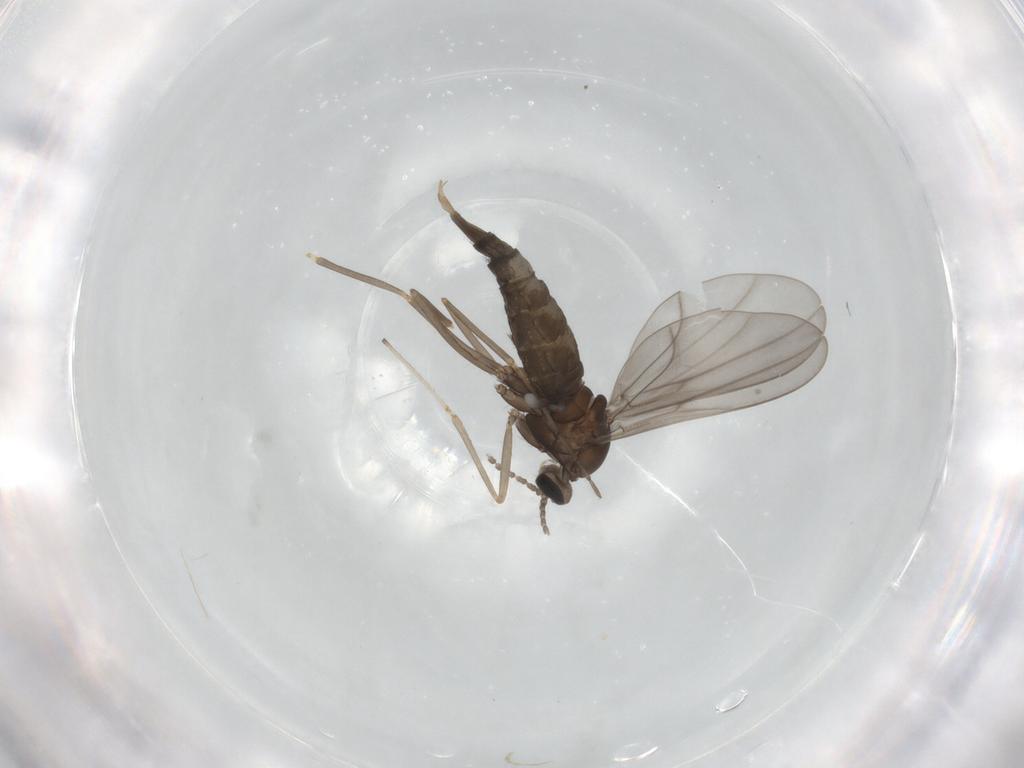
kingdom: Animalia
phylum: Arthropoda
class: Insecta
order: Diptera
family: Cecidomyiidae
